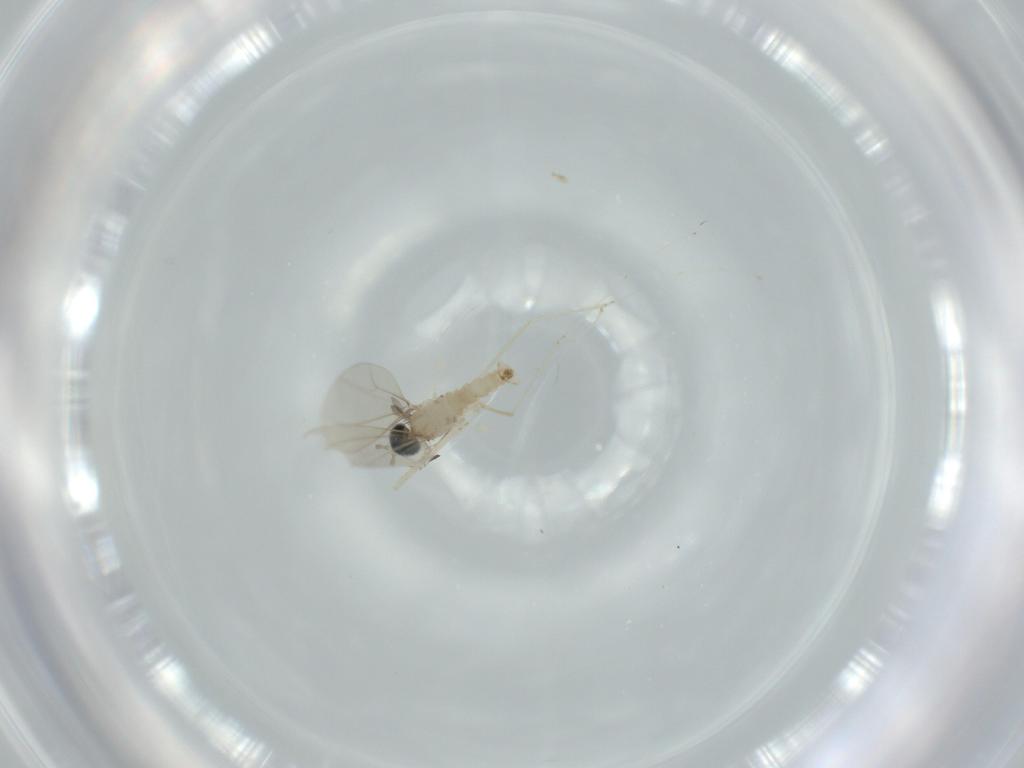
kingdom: Animalia
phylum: Arthropoda
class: Insecta
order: Diptera
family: Cecidomyiidae
